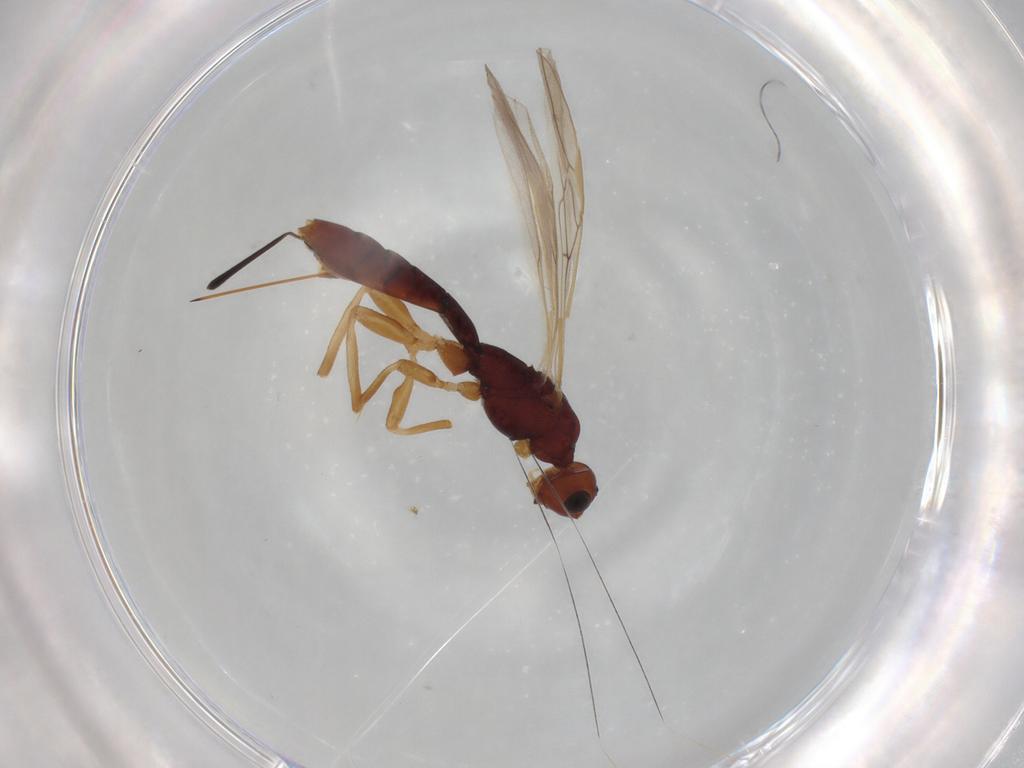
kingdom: Animalia
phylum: Arthropoda
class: Insecta
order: Hymenoptera
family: Braconidae
